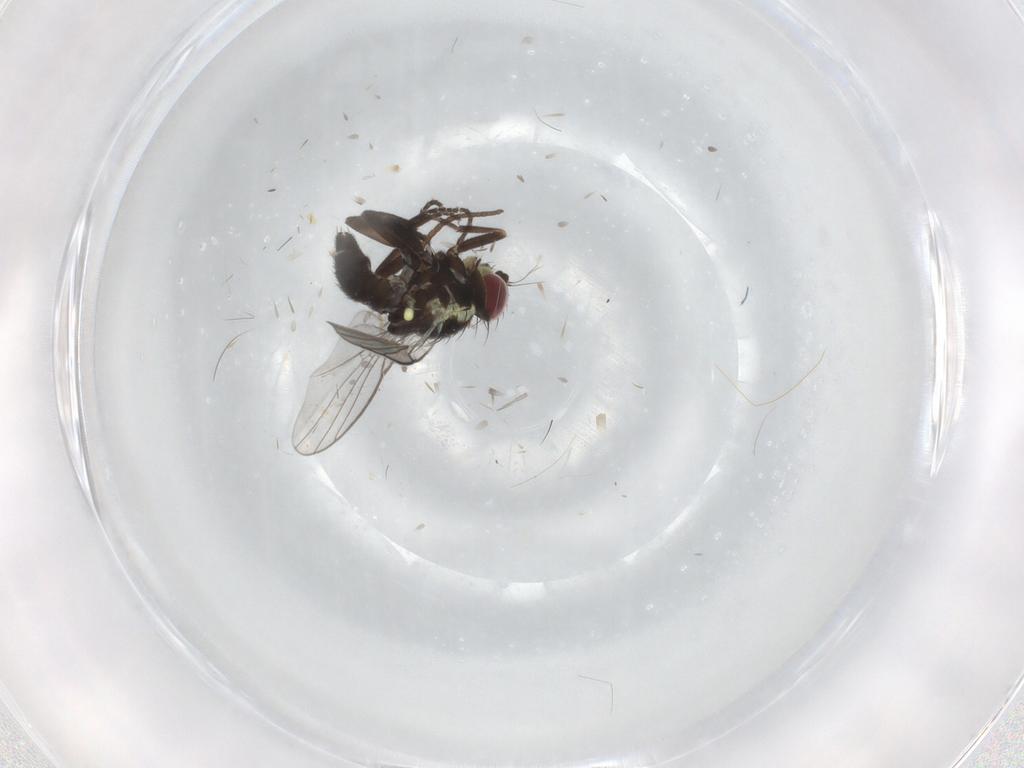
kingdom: Animalia
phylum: Arthropoda
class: Insecta
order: Diptera
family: Agromyzidae
